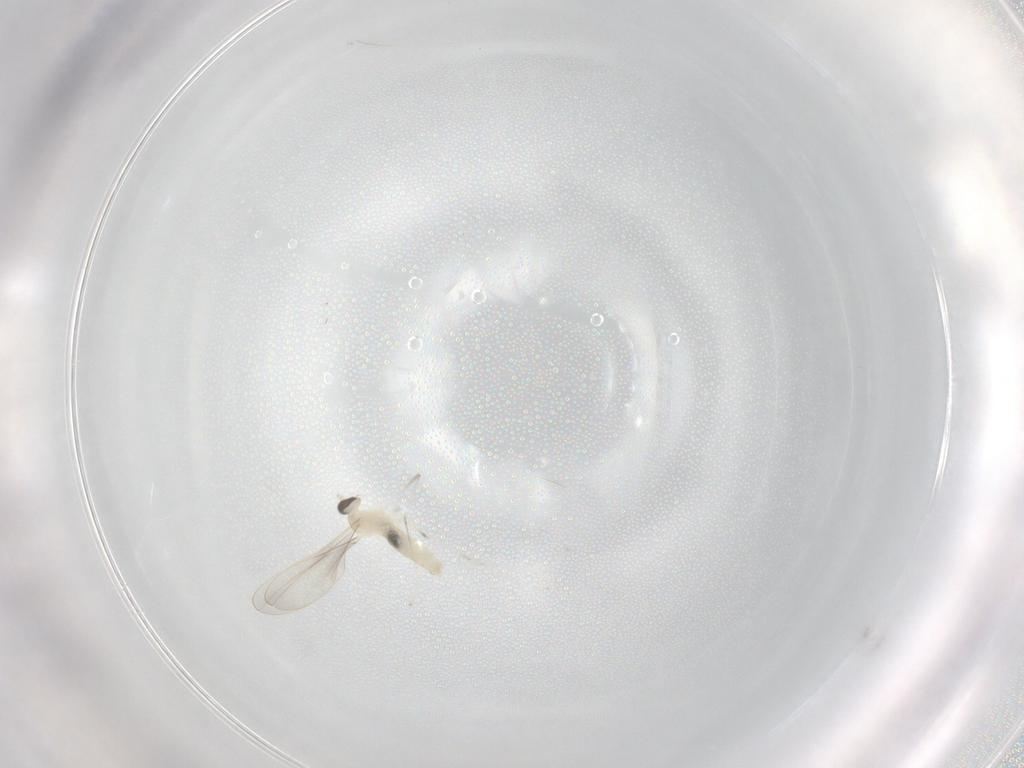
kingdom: Animalia
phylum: Arthropoda
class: Insecta
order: Diptera
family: Cecidomyiidae
